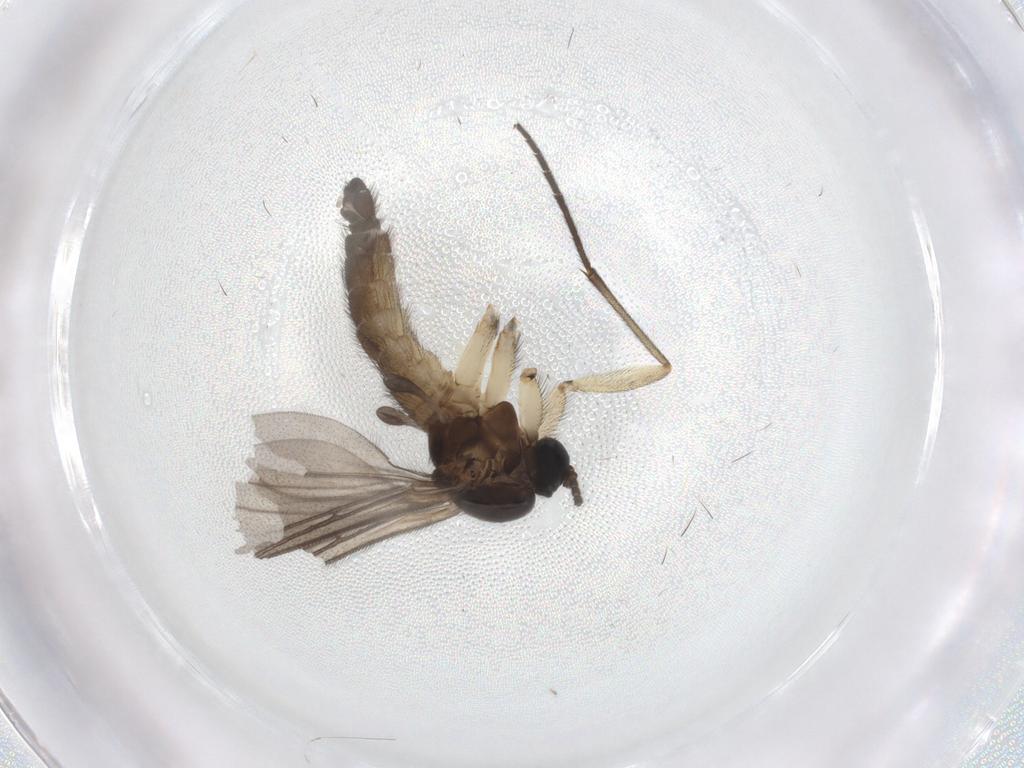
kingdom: Animalia
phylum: Arthropoda
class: Insecta
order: Diptera
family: Sciaridae
